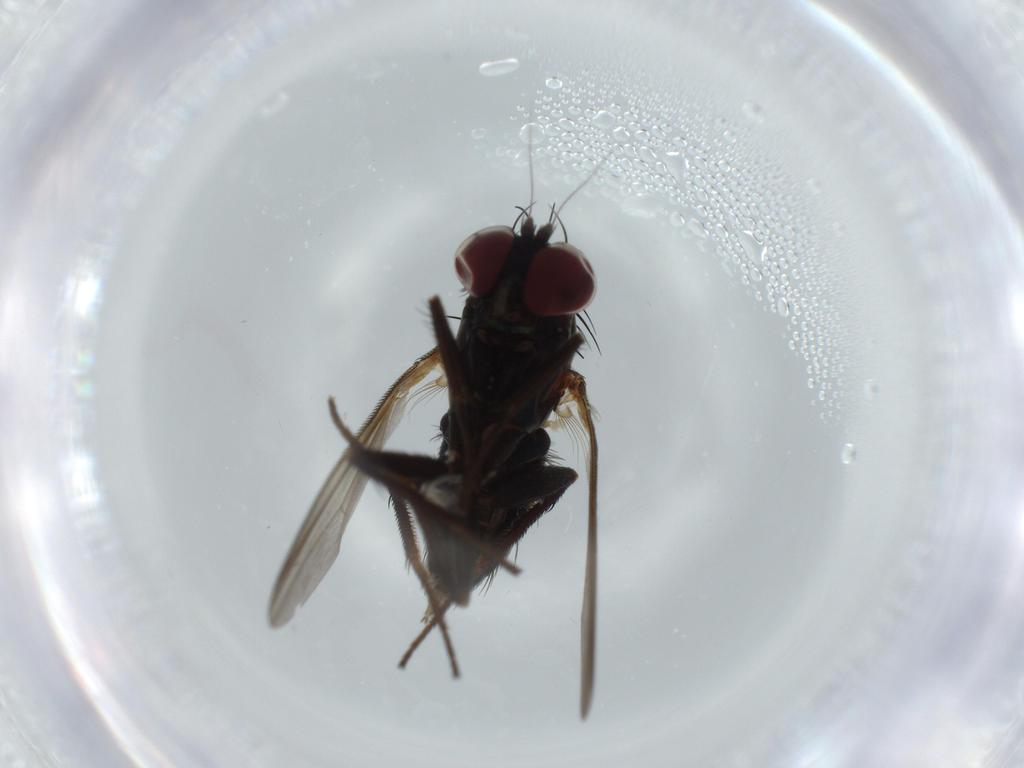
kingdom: Animalia
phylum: Arthropoda
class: Insecta
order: Diptera
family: Dolichopodidae
